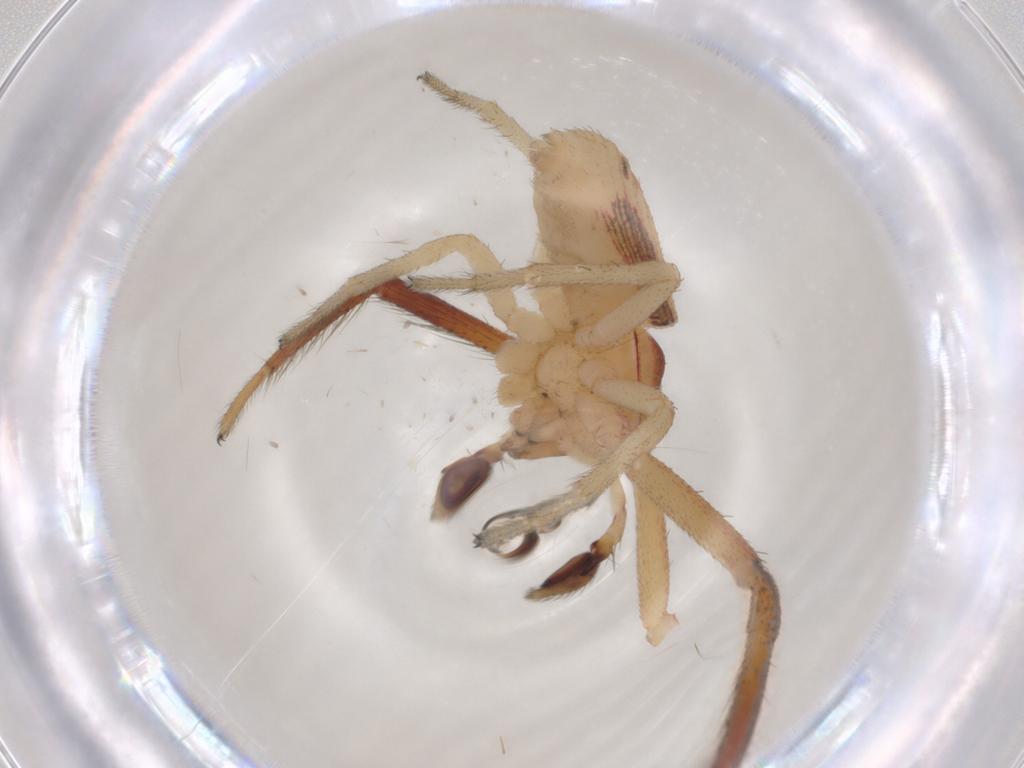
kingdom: Animalia
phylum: Arthropoda
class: Arachnida
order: Araneae
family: Thomisidae
